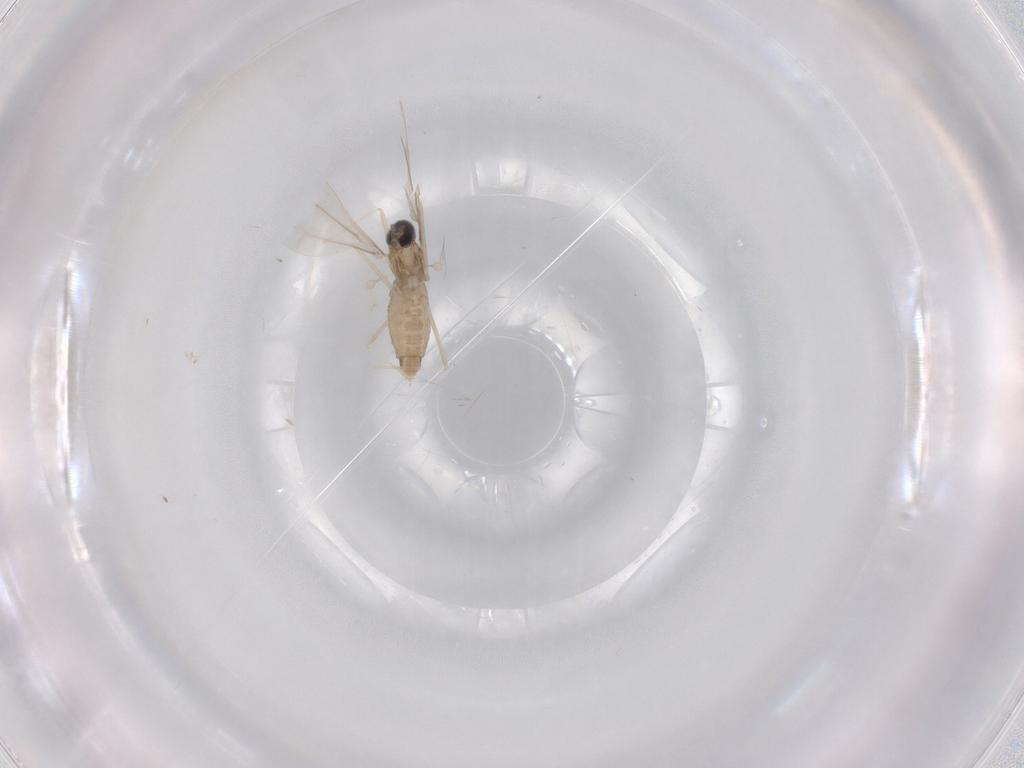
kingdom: Animalia
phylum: Arthropoda
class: Insecta
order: Diptera
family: Cecidomyiidae
